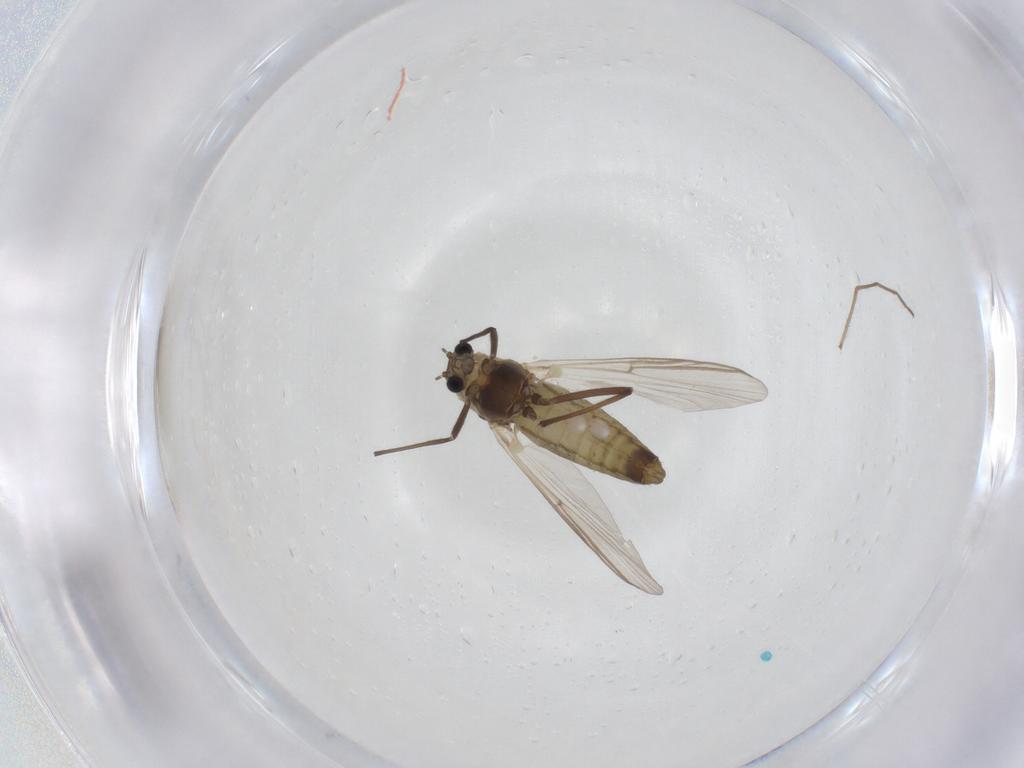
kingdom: Animalia
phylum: Arthropoda
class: Insecta
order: Diptera
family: Chironomidae
